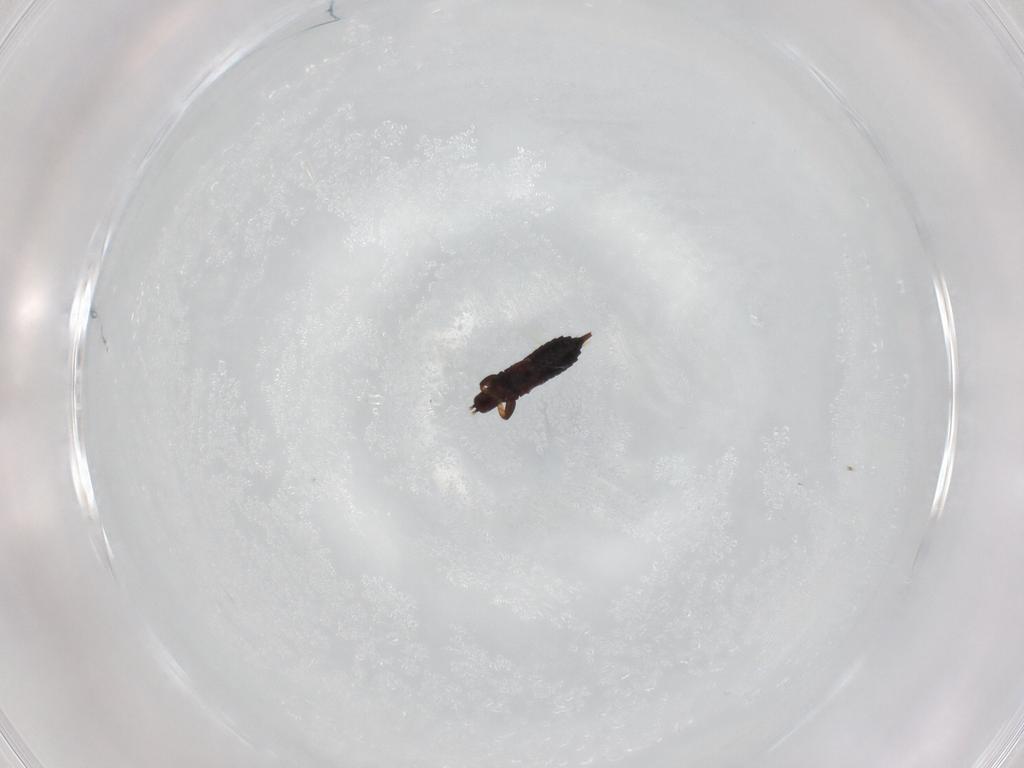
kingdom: Animalia
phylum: Arthropoda
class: Insecta
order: Thysanoptera
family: Phlaeothripidae
